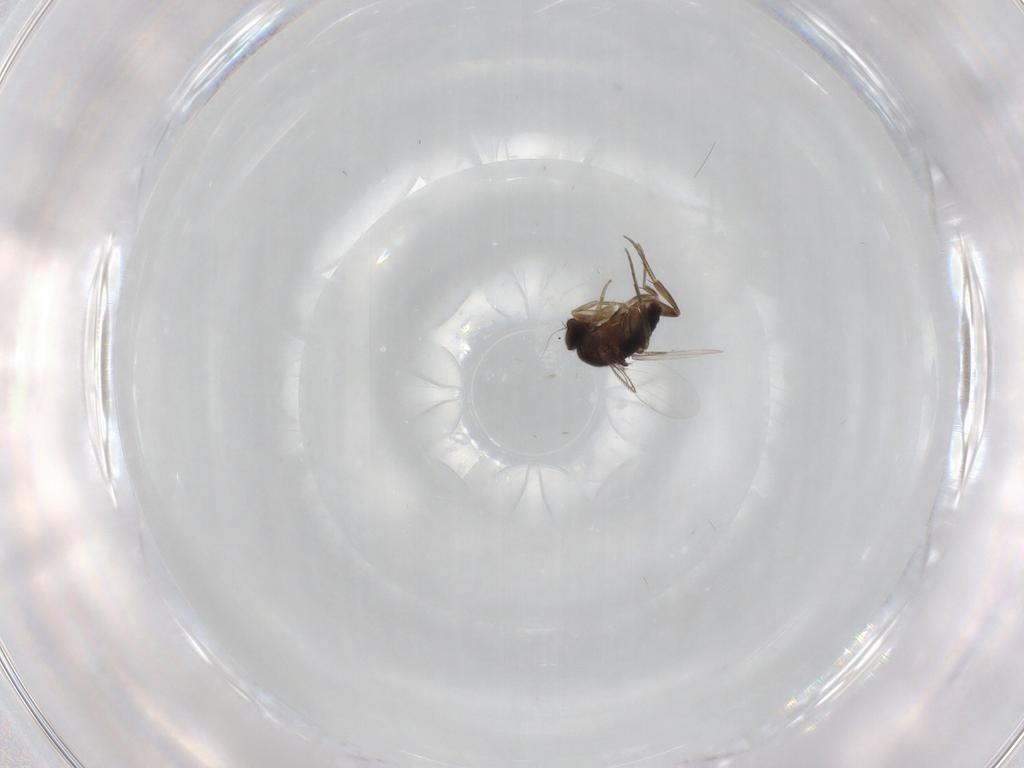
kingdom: Animalia
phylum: Arthropoda
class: Insecta
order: Diptera
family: Phoridae
